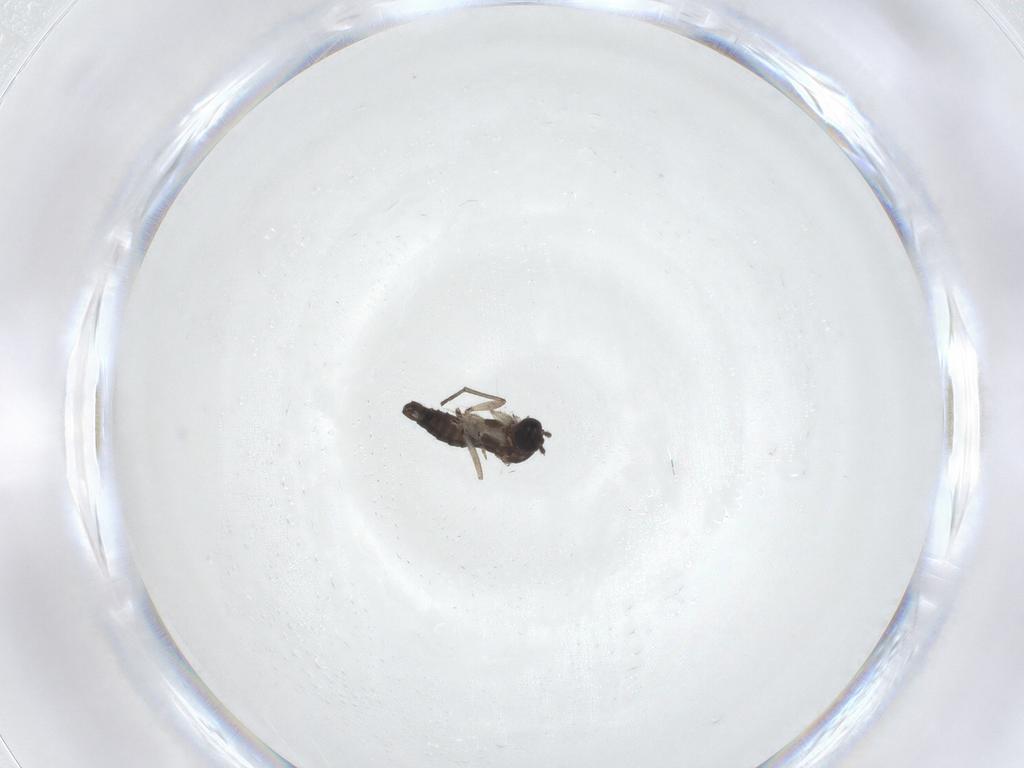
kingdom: Animalia
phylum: Arthropoda
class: Insecta
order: Diptera
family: Sciaridae
